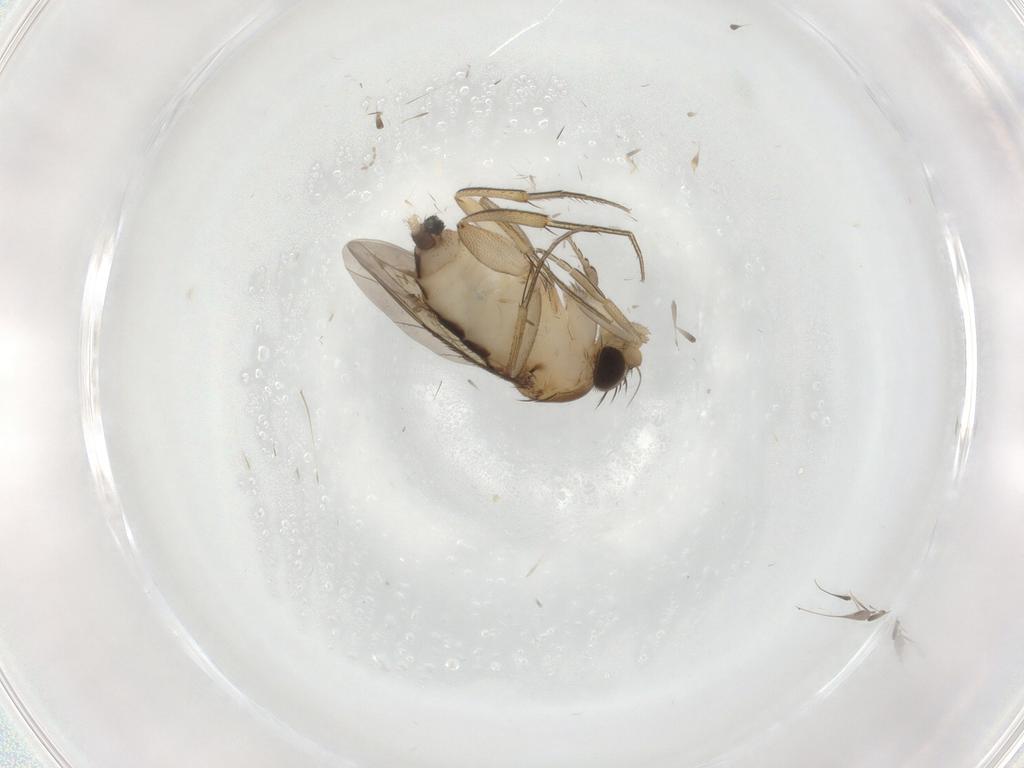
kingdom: Animalia
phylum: Arthropoda
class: Insecta
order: Diptera
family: Phoridae
